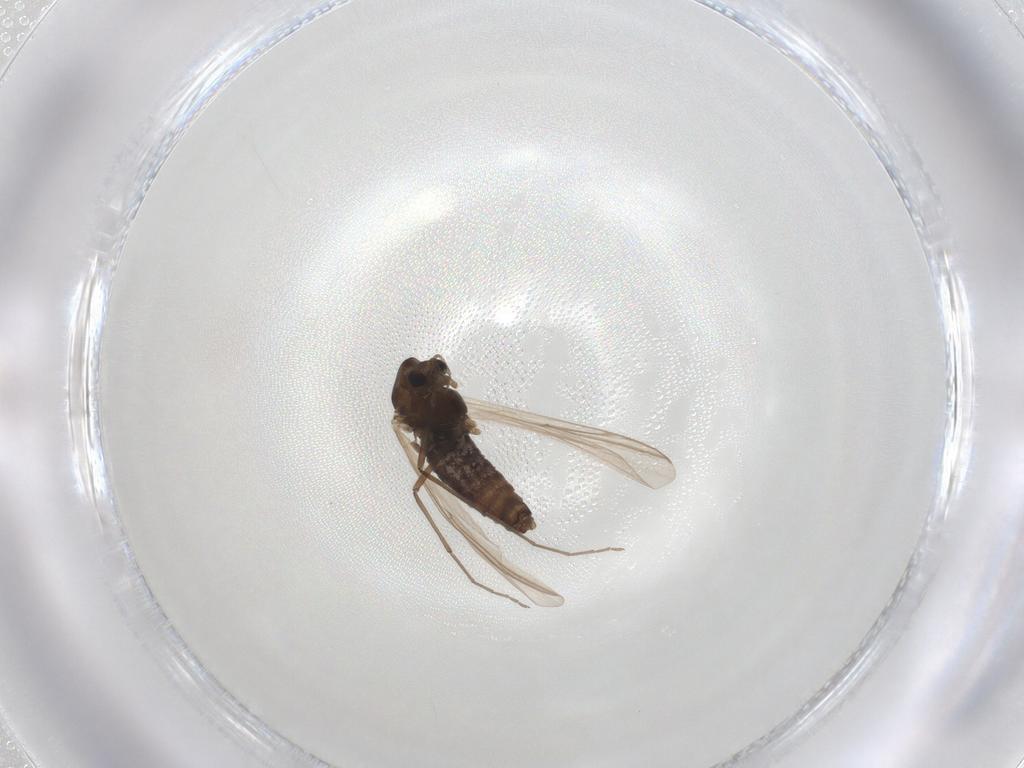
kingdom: Animalia
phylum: Arthropoda
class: Insecta
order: Diptera
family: Chironomidae
